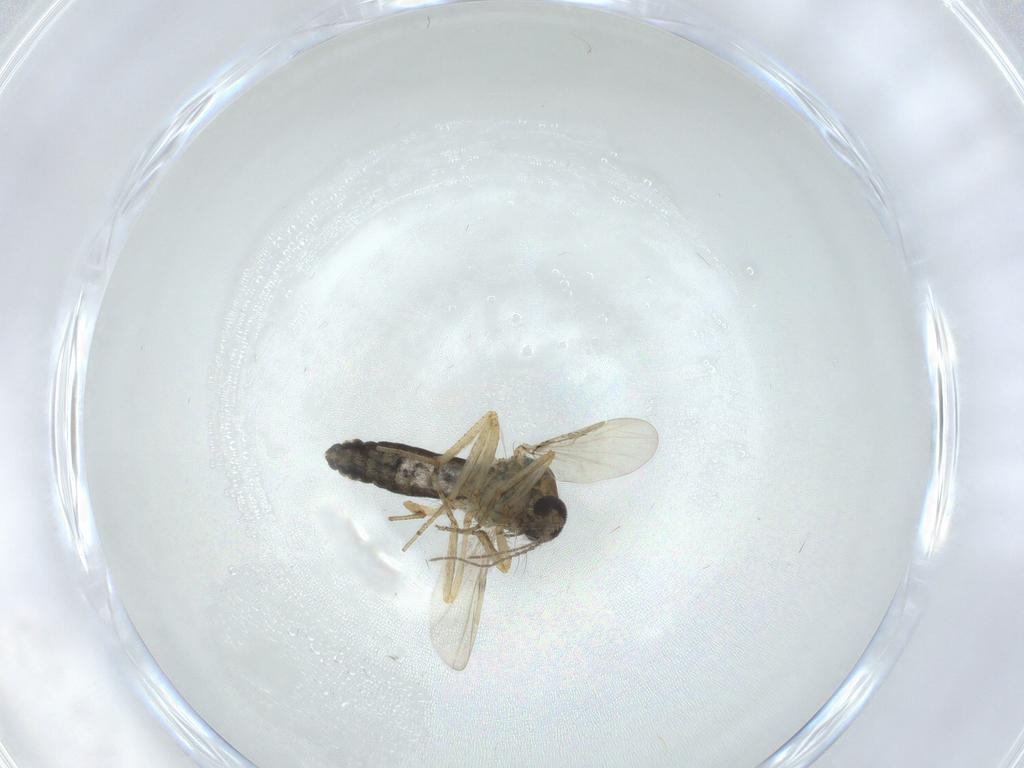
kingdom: Animalia
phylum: Arthropoda
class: Insecta
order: Diptera
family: Ceratopogonidae
